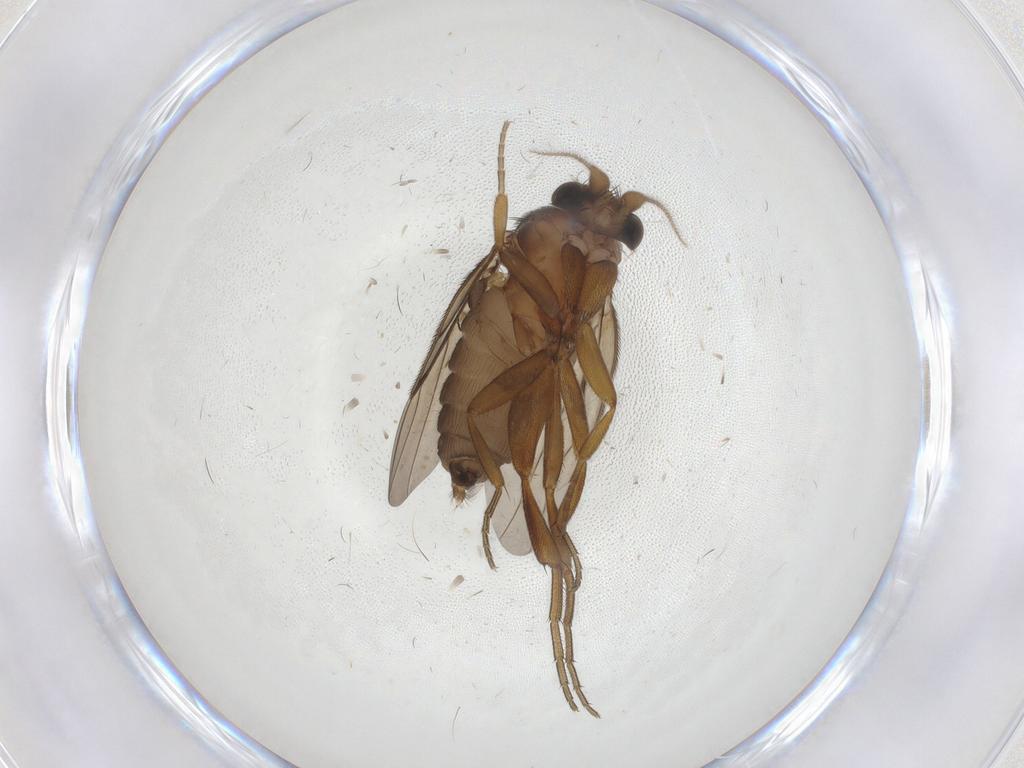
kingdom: Animalia
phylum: Arthropoda
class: Insecta
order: Diptera
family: Phoridae
